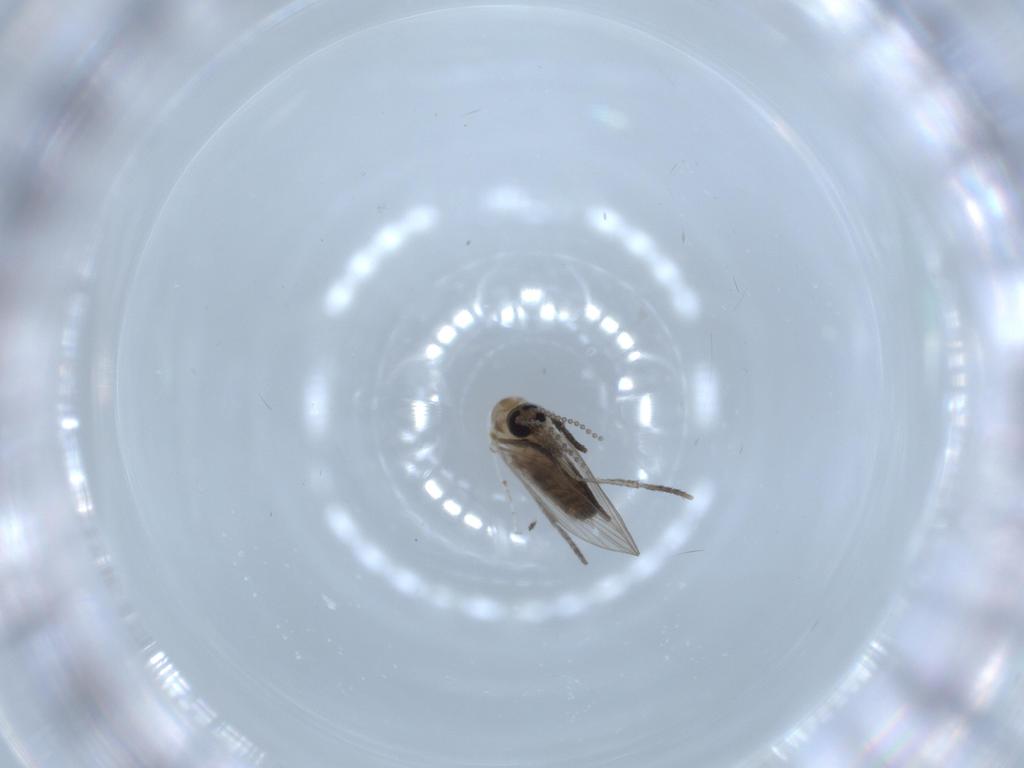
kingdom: Animalia
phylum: Arthropoda
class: Insecta
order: Diptera
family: Psychodidae
